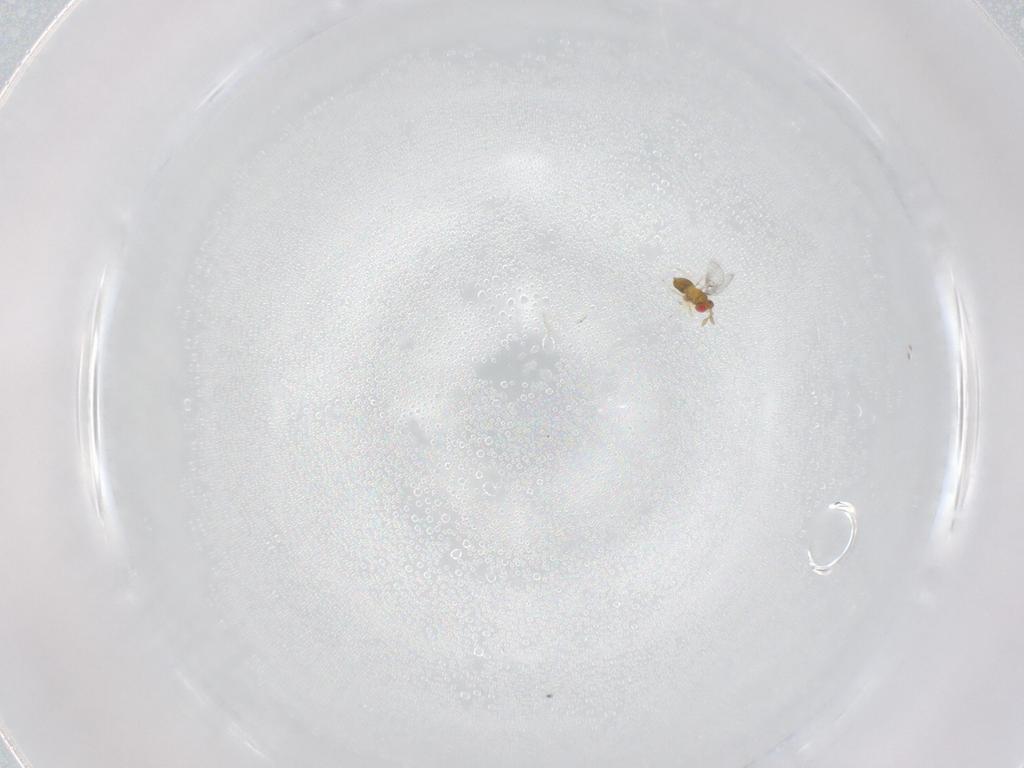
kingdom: Animalia
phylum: Arthropoda
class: Insecta
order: Hymenoptera
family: Trichogrammatidae
